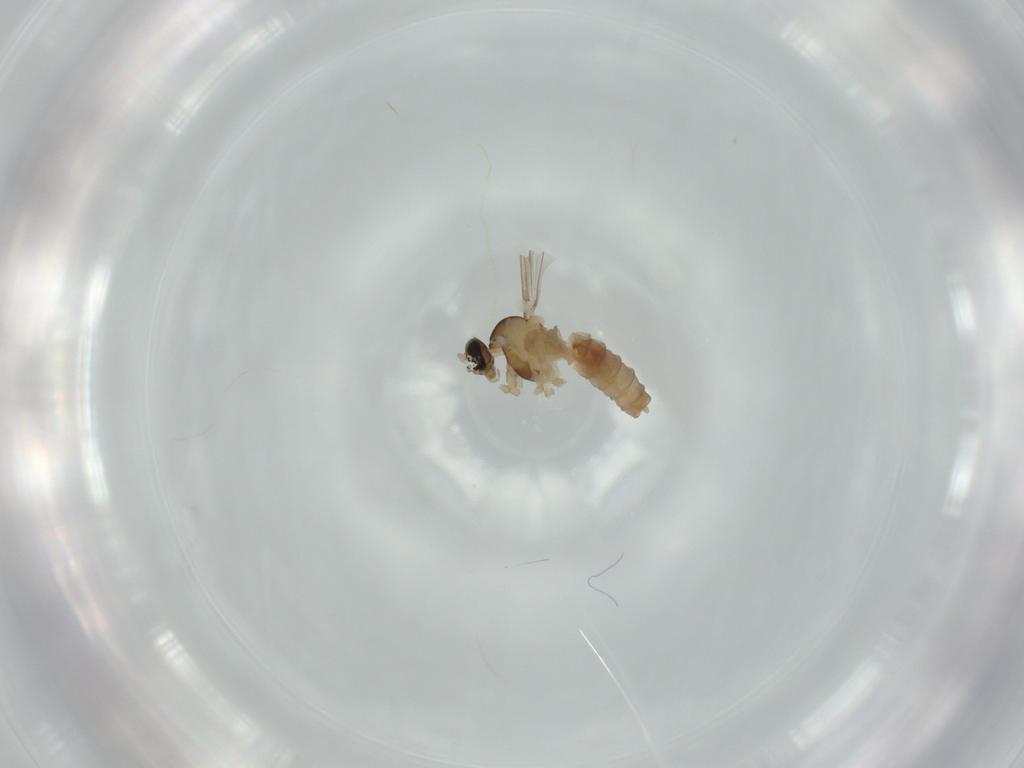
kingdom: Animalia
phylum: Arthropoda
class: Insecta
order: Diptera
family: Cecidomyiidae
